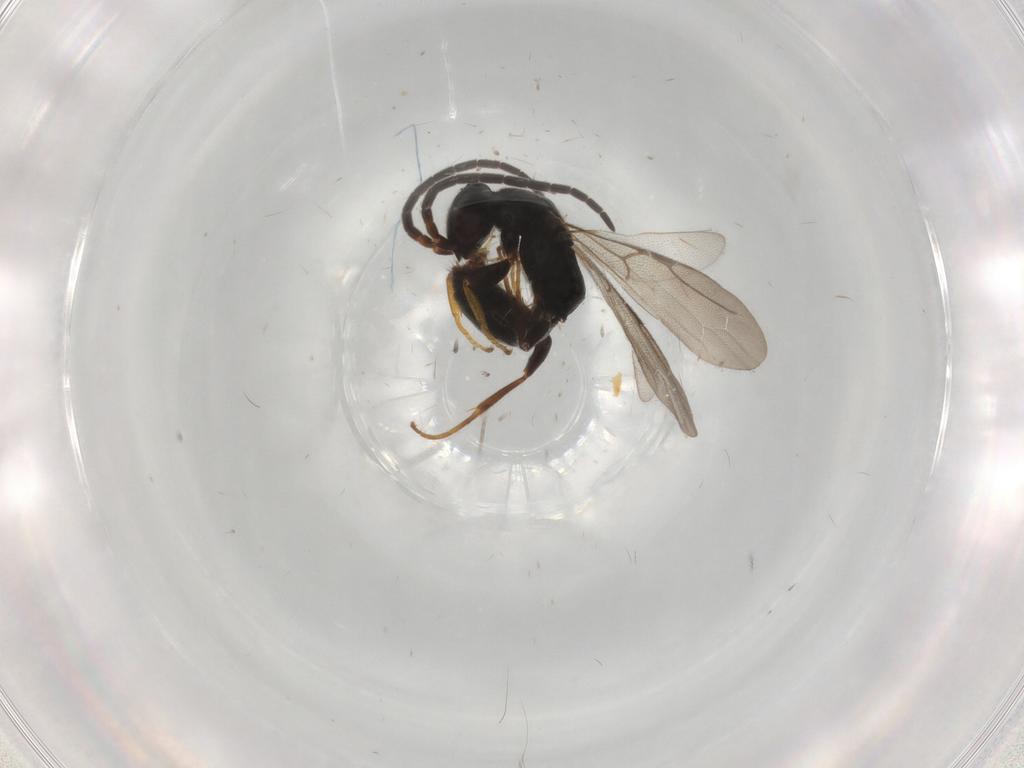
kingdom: Animalia
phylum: Arthropoda
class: Insecta
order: Hymenoptera
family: Bethylidae
